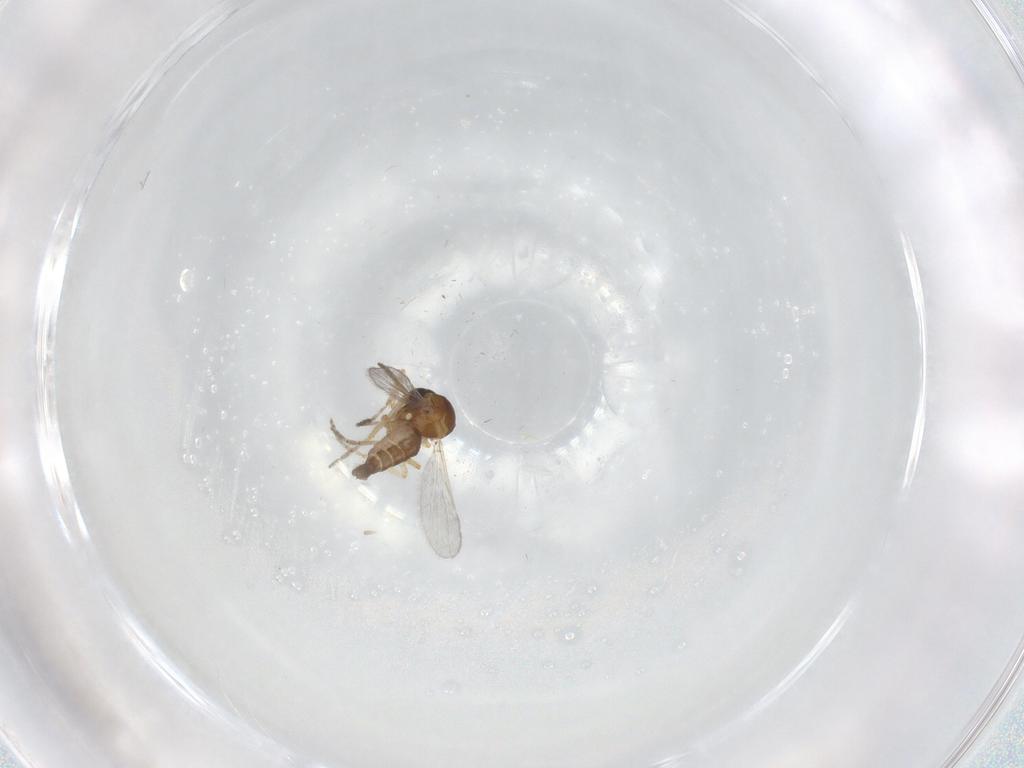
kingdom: Animalia
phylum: Arthropoda
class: Insecta
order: Diptera
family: Ceratopogonidae
